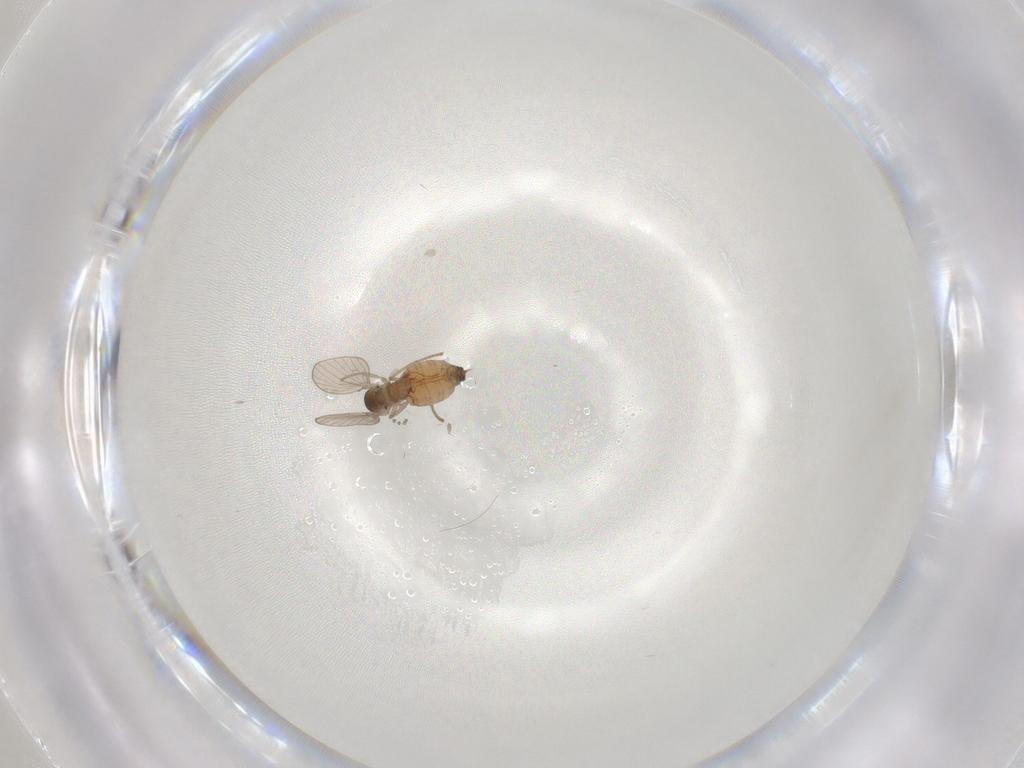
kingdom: Animalia
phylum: Arthropoda
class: Insecta
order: Diptera
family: Psychodidae
